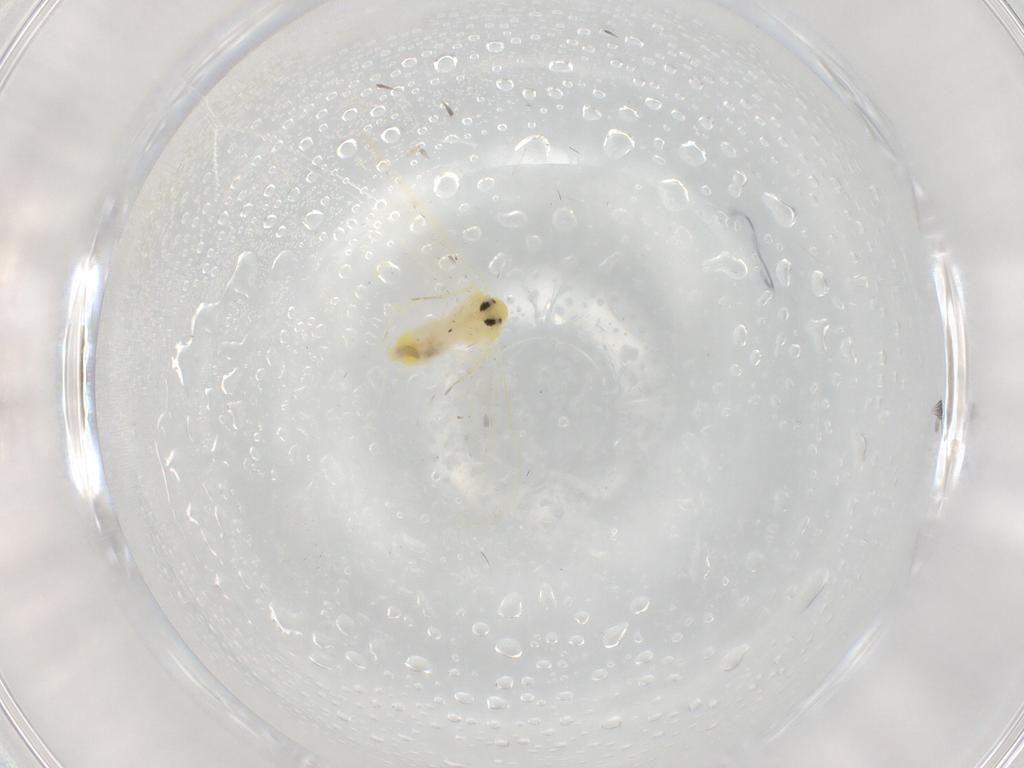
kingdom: Animalia
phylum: Arthropoda
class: Insecta
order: Hemiptera
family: Aleyrodidae
